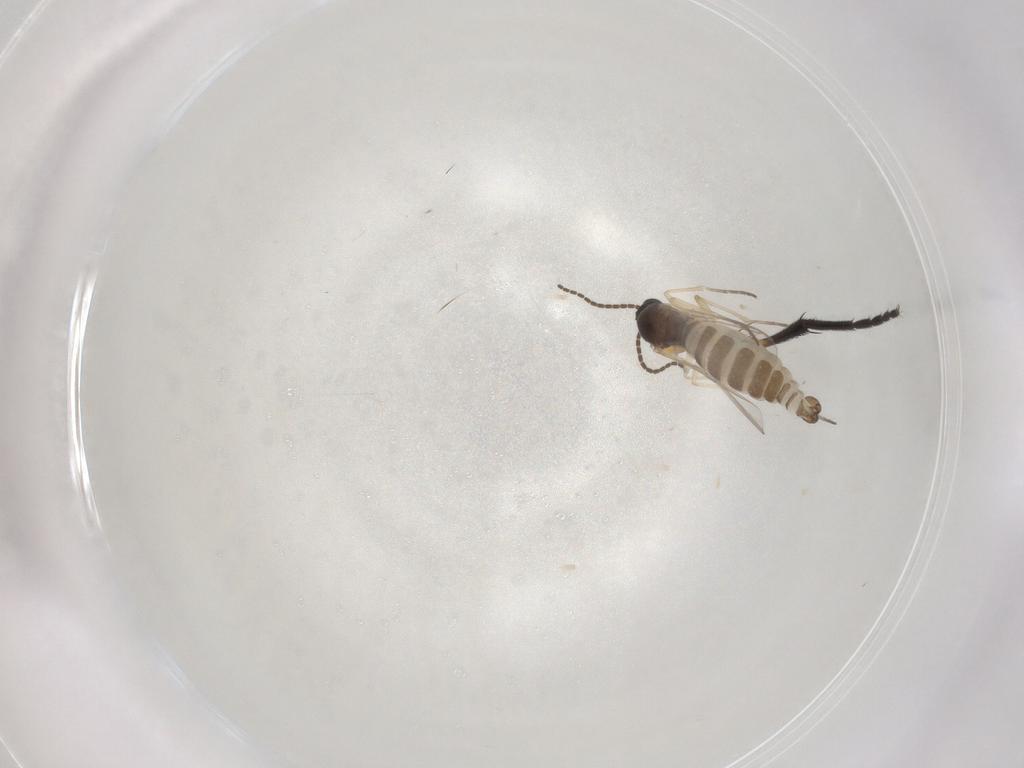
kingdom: Animalia
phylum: Arthropoda
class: Insecta
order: Diptera
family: Muscidae
